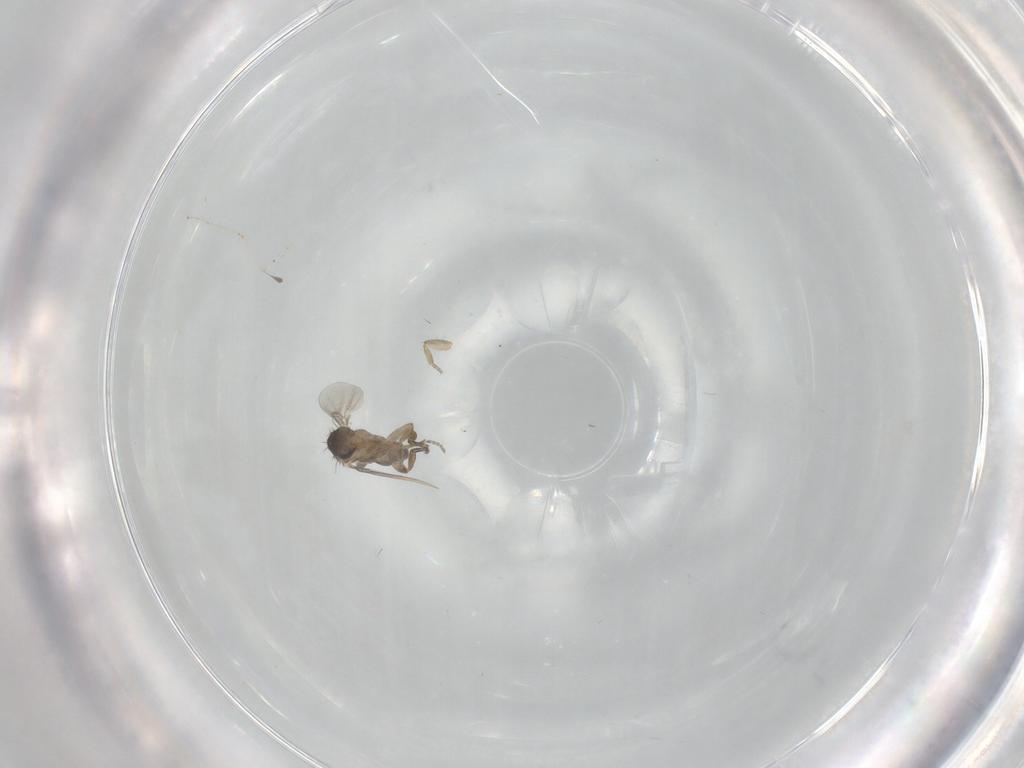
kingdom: Animalia
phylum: Arthropoda
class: Insecta
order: Diptera
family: Phoridae
